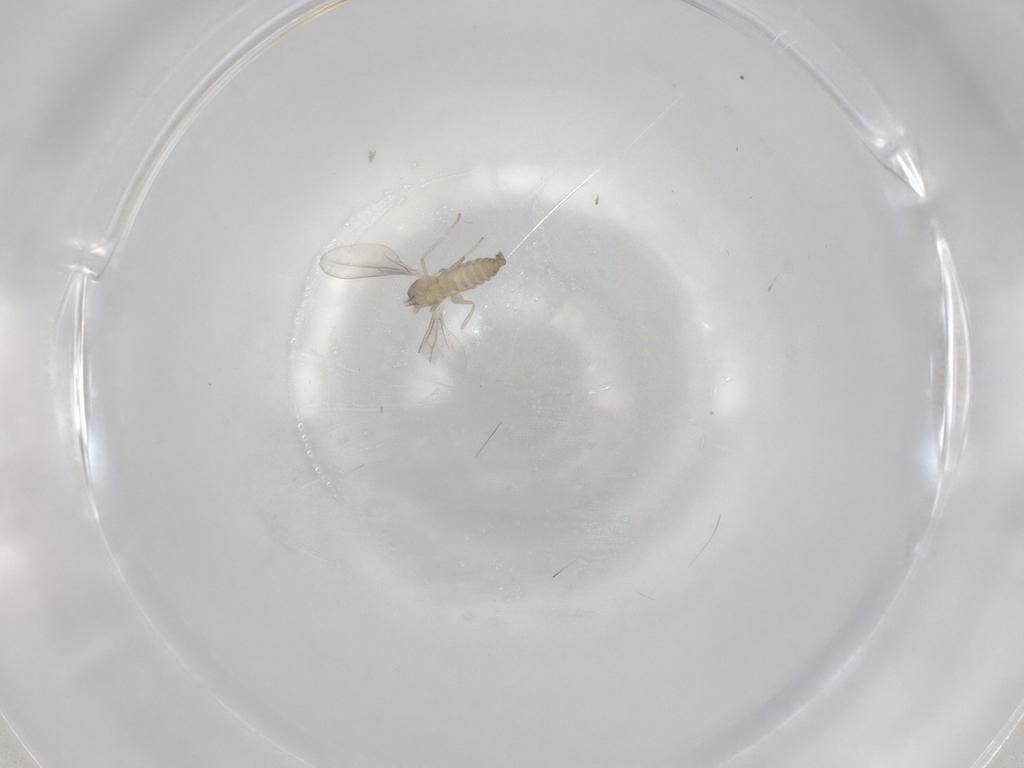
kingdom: Animalia
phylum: Arthropoda
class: Insecta
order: Diptera
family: Cecidomyiidae
